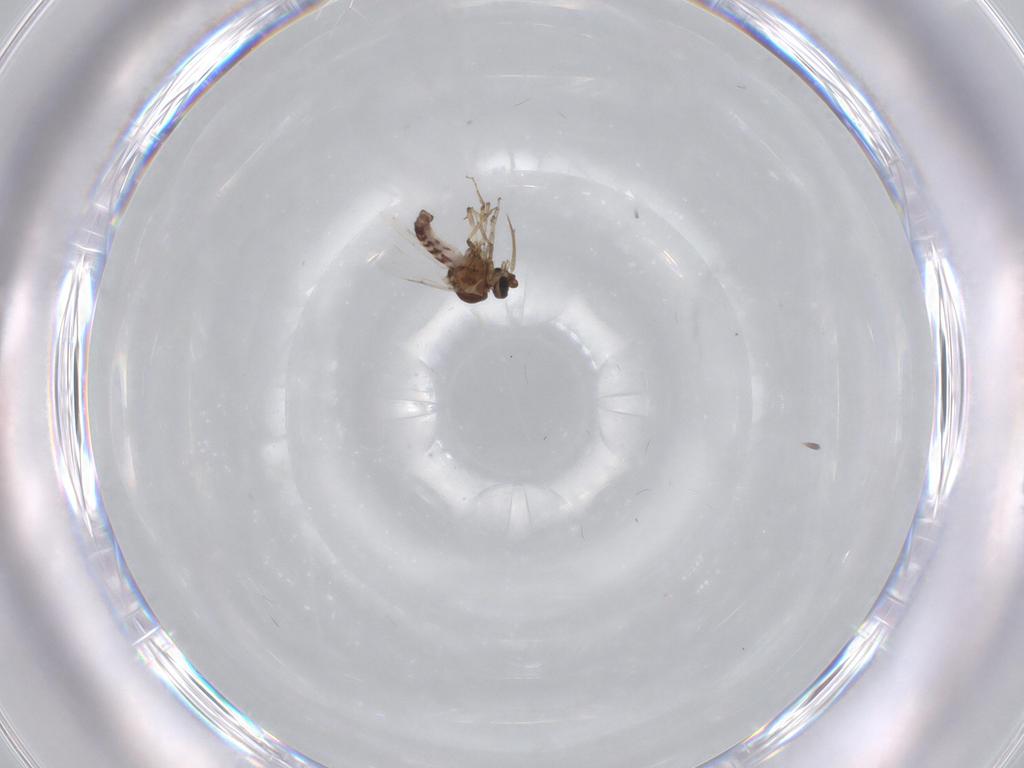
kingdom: Animalia
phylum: Arthropoda
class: Insecta
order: Diptera
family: Cecidomyiidae
